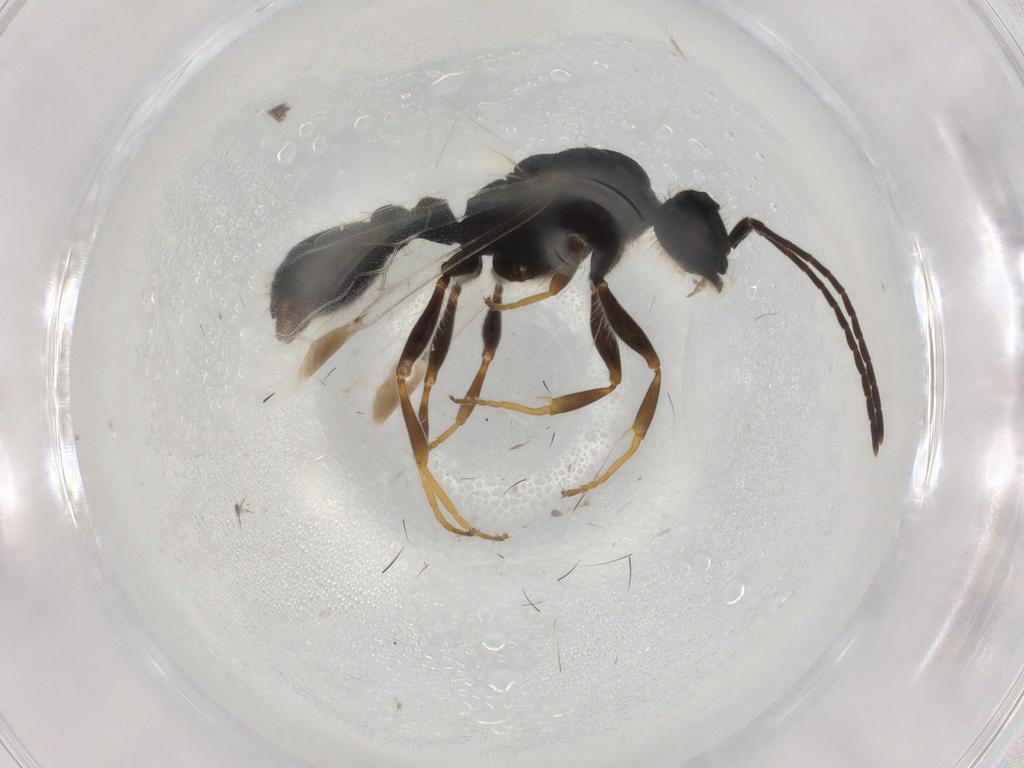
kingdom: Animalia
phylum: Arthropoda
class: Insecta
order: Hymenoptera
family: Formicidae
